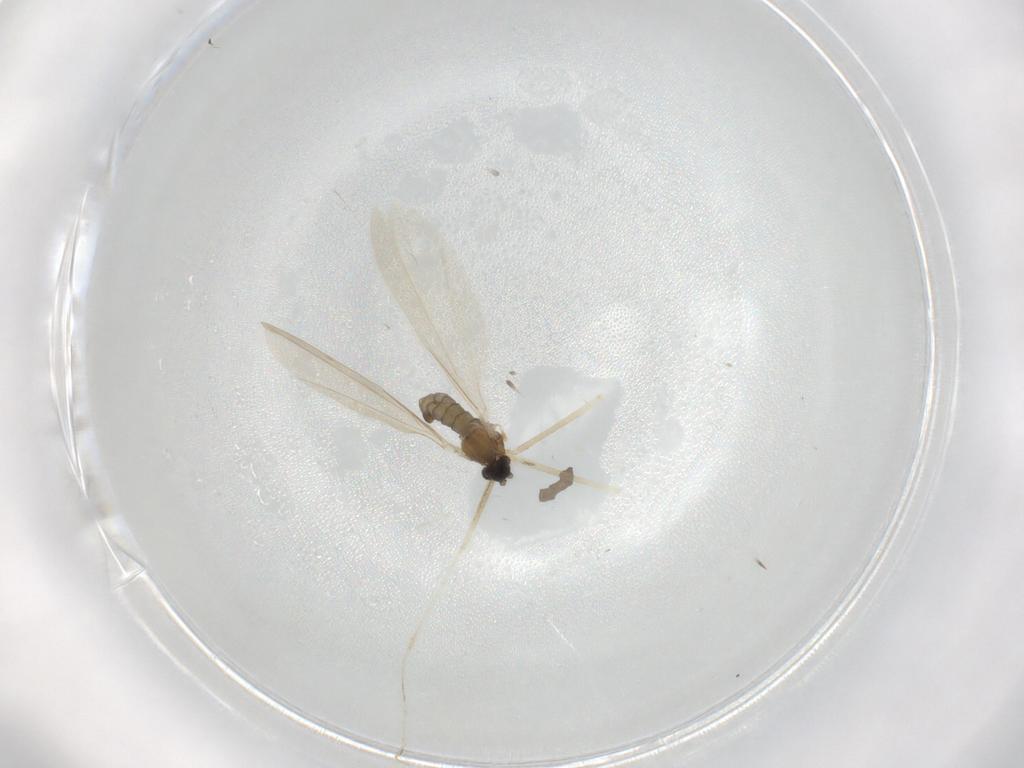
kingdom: Animalia
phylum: Arthropoda
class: Insecta
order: Diptera
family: Cecidomyiidae
